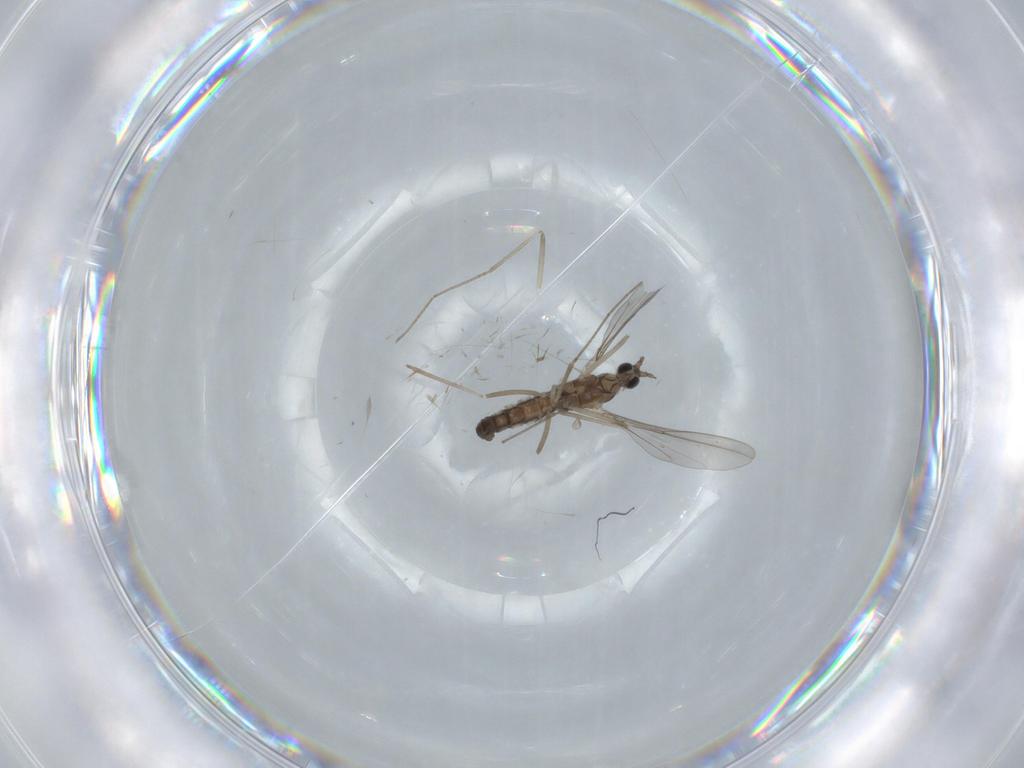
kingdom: Animalia
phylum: Arthropoda
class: Insecta
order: Diptera
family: Cecidomyiidae
